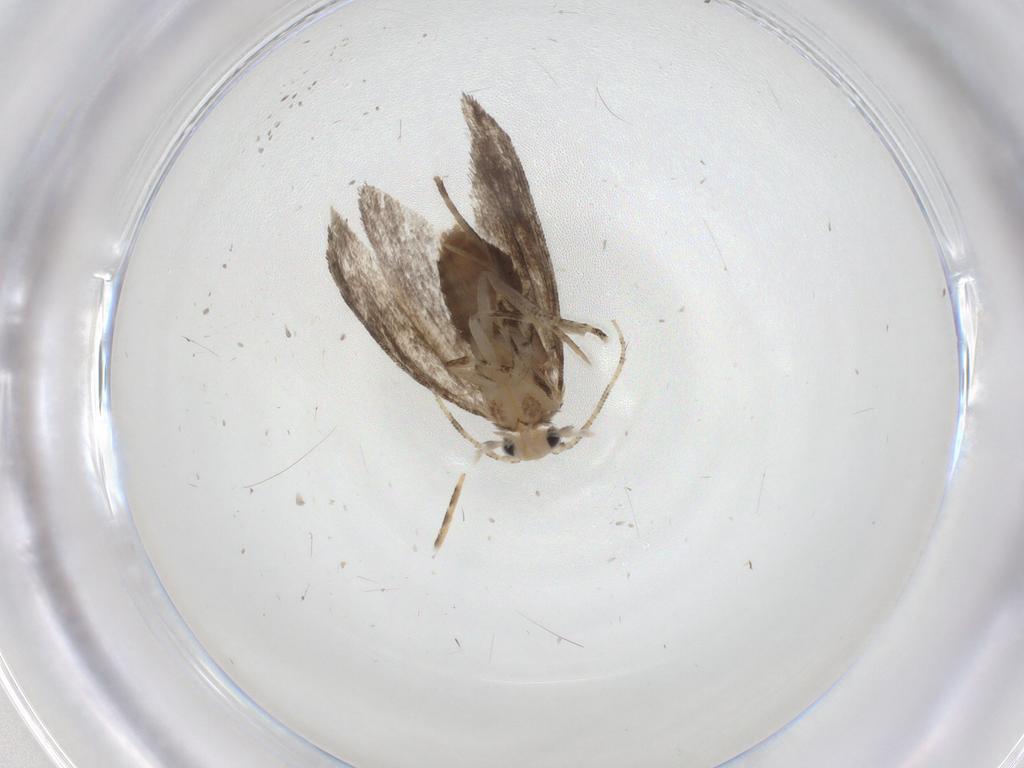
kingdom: Animalia
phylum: Arthropoda
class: Insecta
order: Lepidoptera
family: Tineidae
